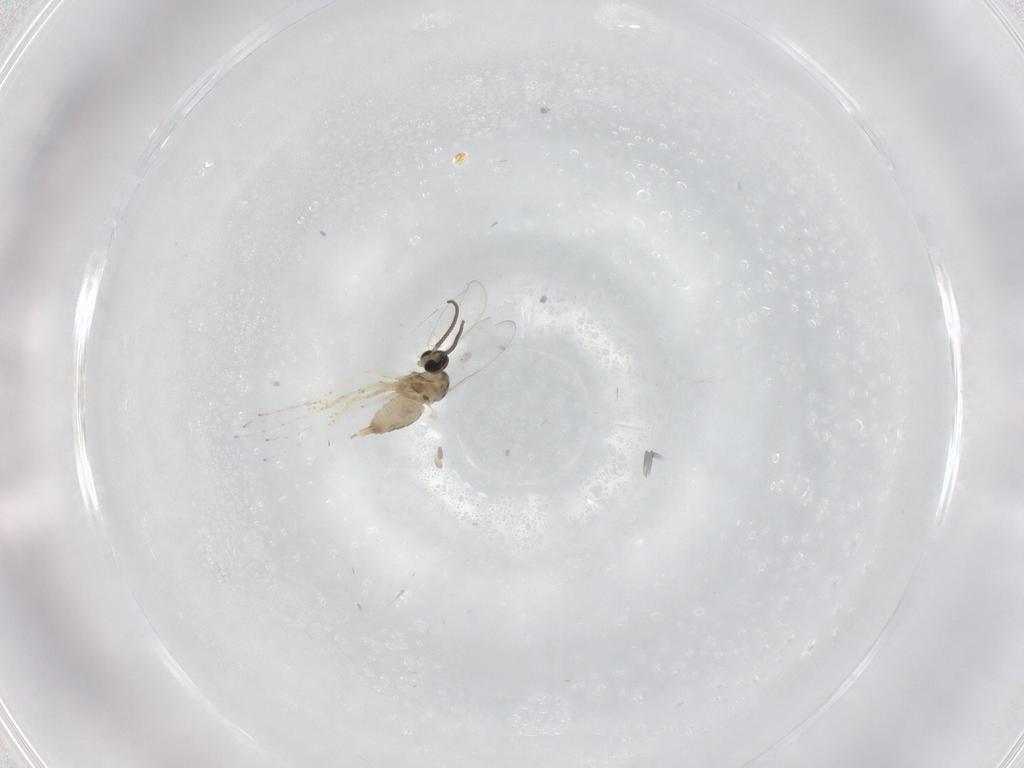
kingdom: Animalia
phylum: Arthropoda
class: Insecta
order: Diptera
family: Cecidomyiidae
